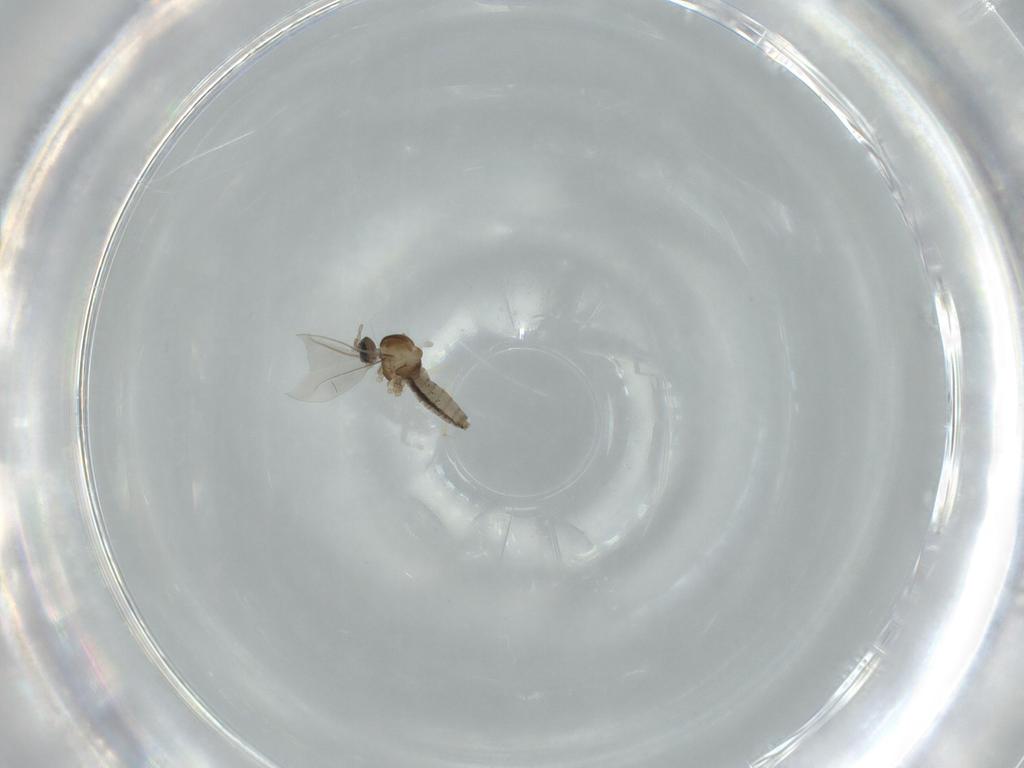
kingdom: Animalia
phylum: Arthropoda
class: Insecta
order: Diptera
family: Cecidomyiidae
